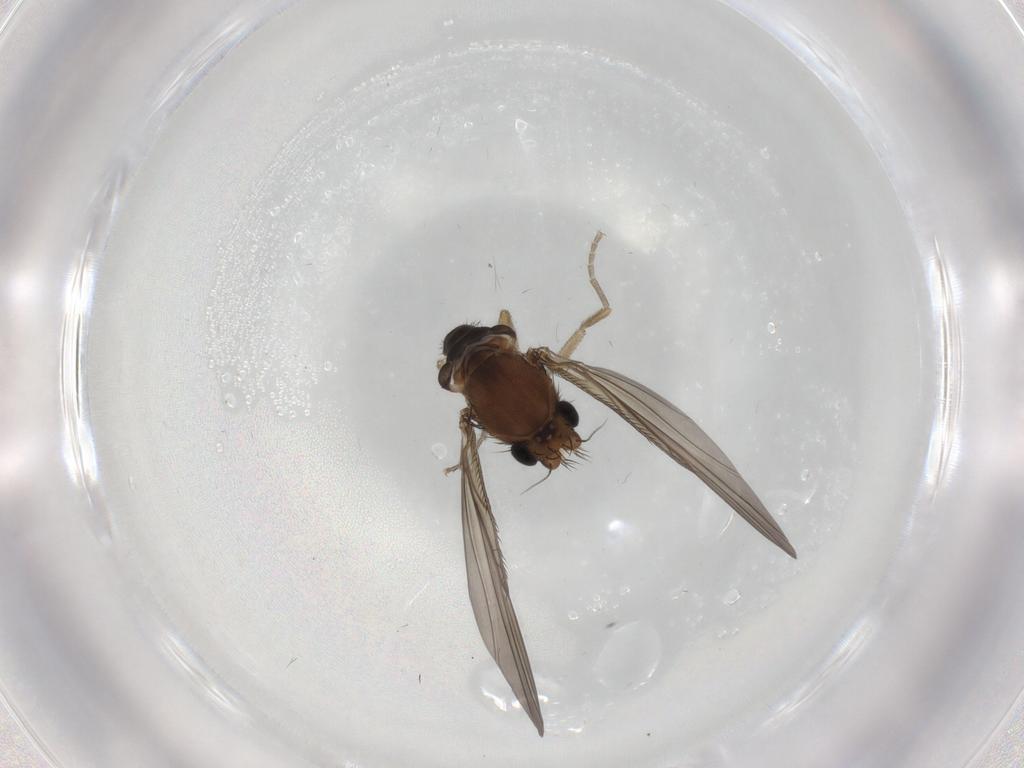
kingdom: Animalia
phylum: Arthropoda
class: Insecta
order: Diptera
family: Phoridae
